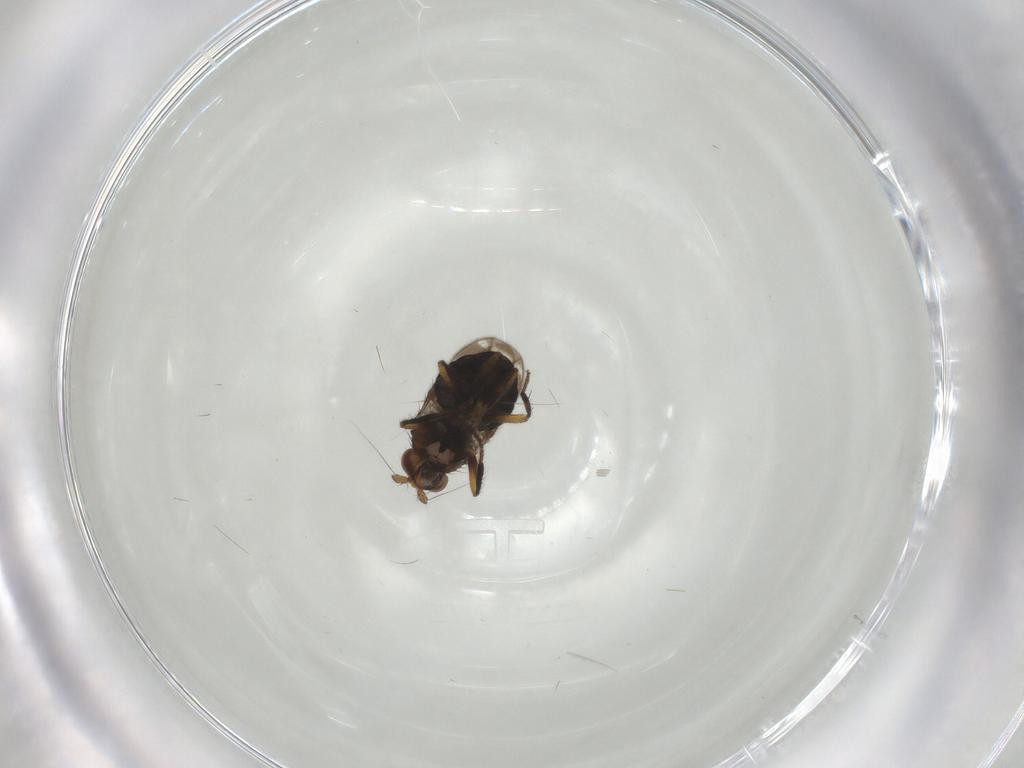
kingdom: Animalia
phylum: Arthropoda
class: Insecta
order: Diptera
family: Sphaeroceridae
